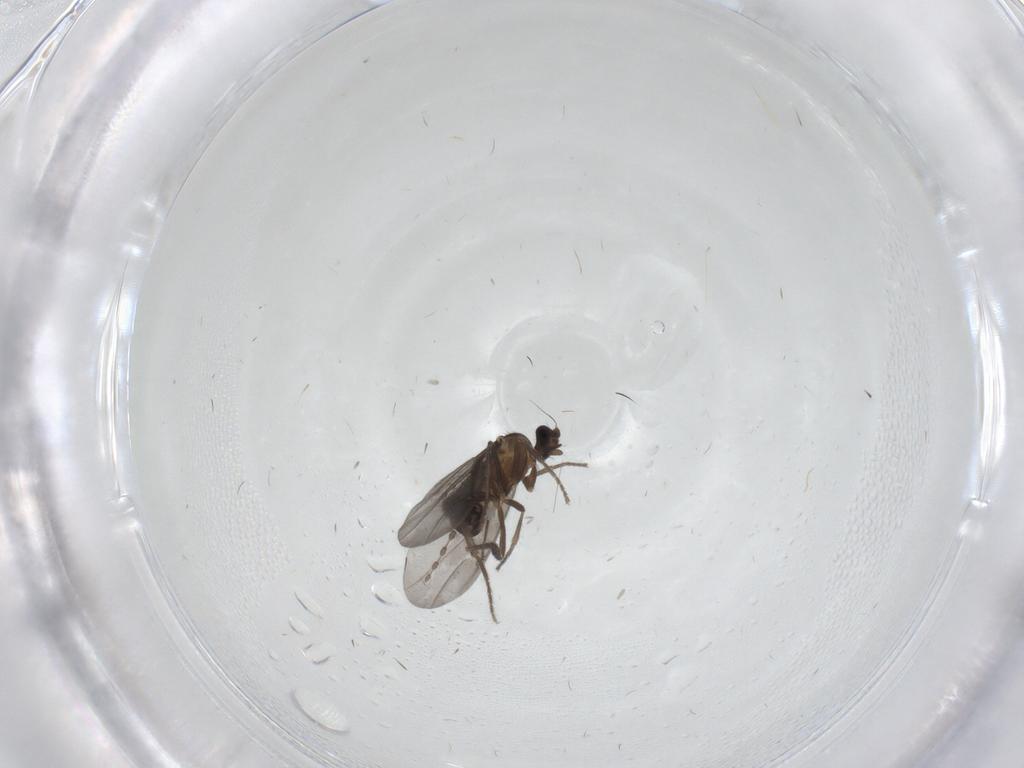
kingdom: Animalia
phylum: Arthropoda
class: Insecta
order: Diptera
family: Phoridae
